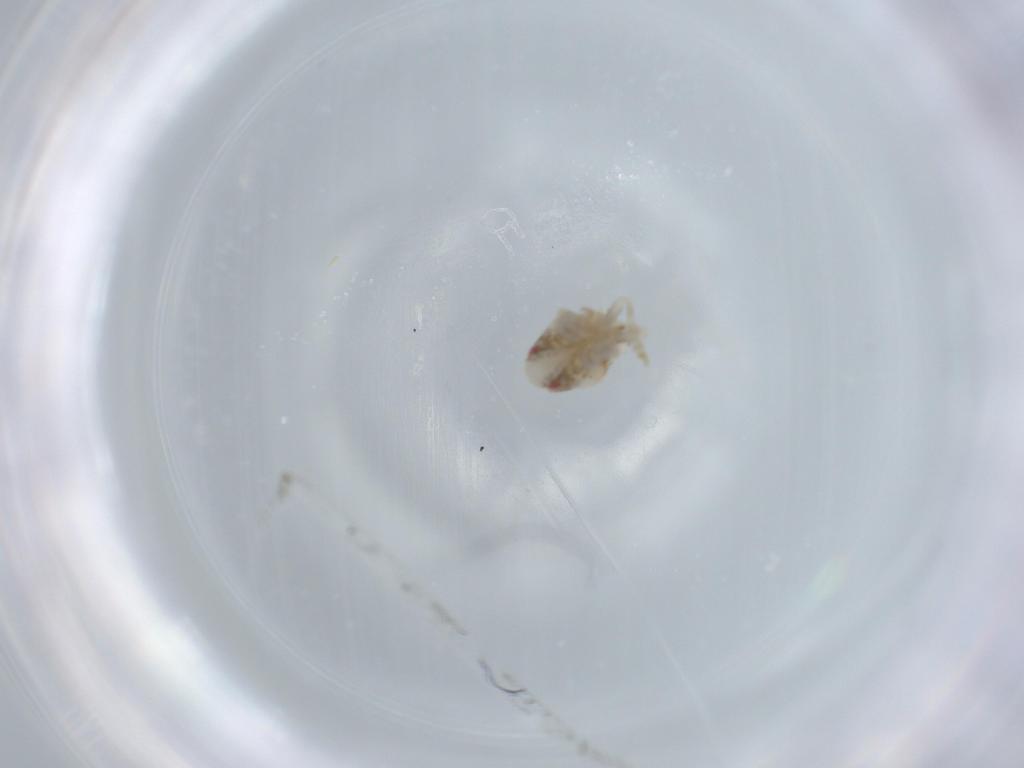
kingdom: Animalia
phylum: Arthropoda
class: Insecta
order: Hemiptera
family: Acanaloniidae
